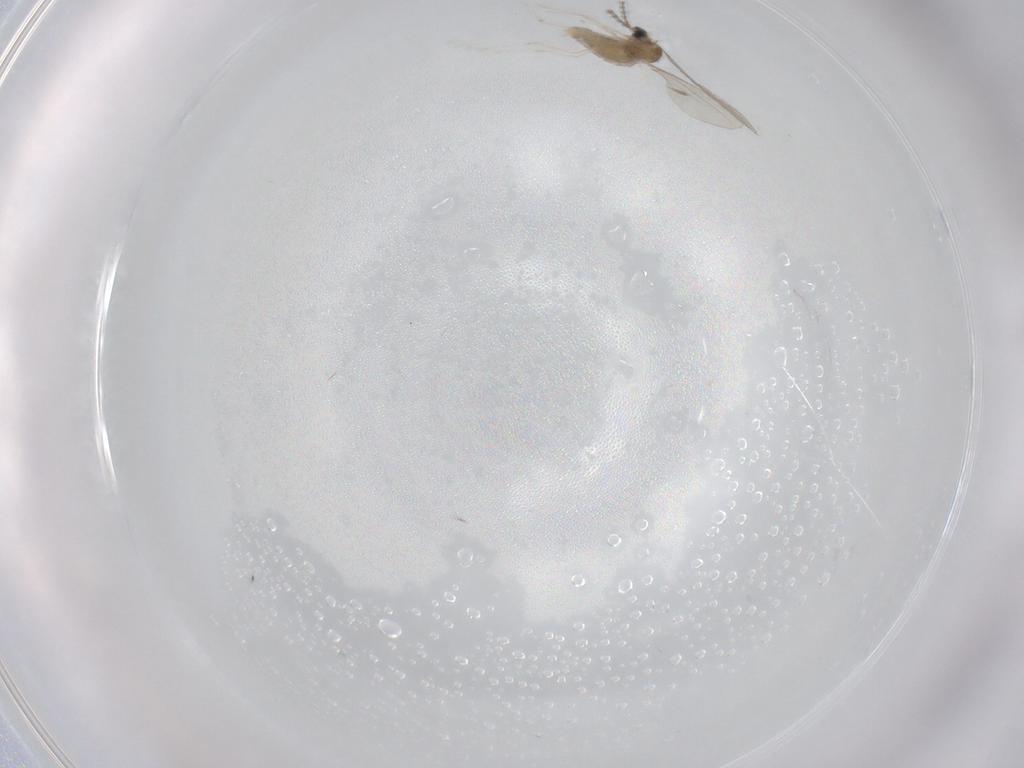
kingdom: Animalia
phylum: Arthropoda
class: Insecta
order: Diptera
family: Cecidomyiidae
